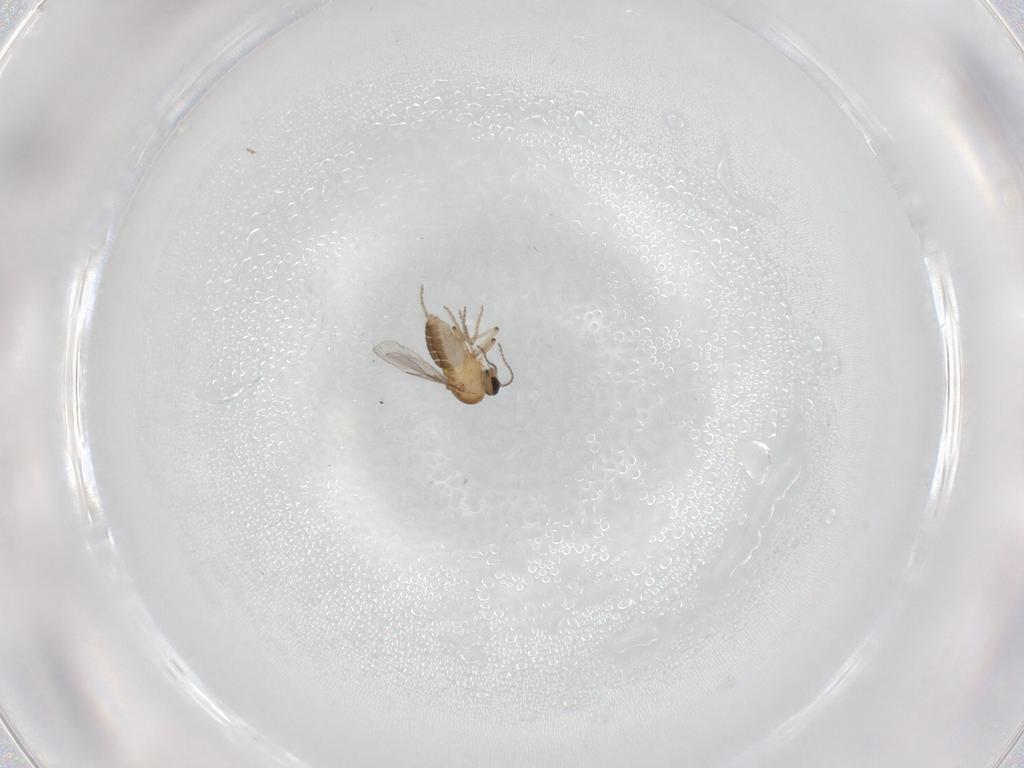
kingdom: Animalia
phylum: Arthropoda
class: Insecta
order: Diptera
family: Ceratopogonidae
